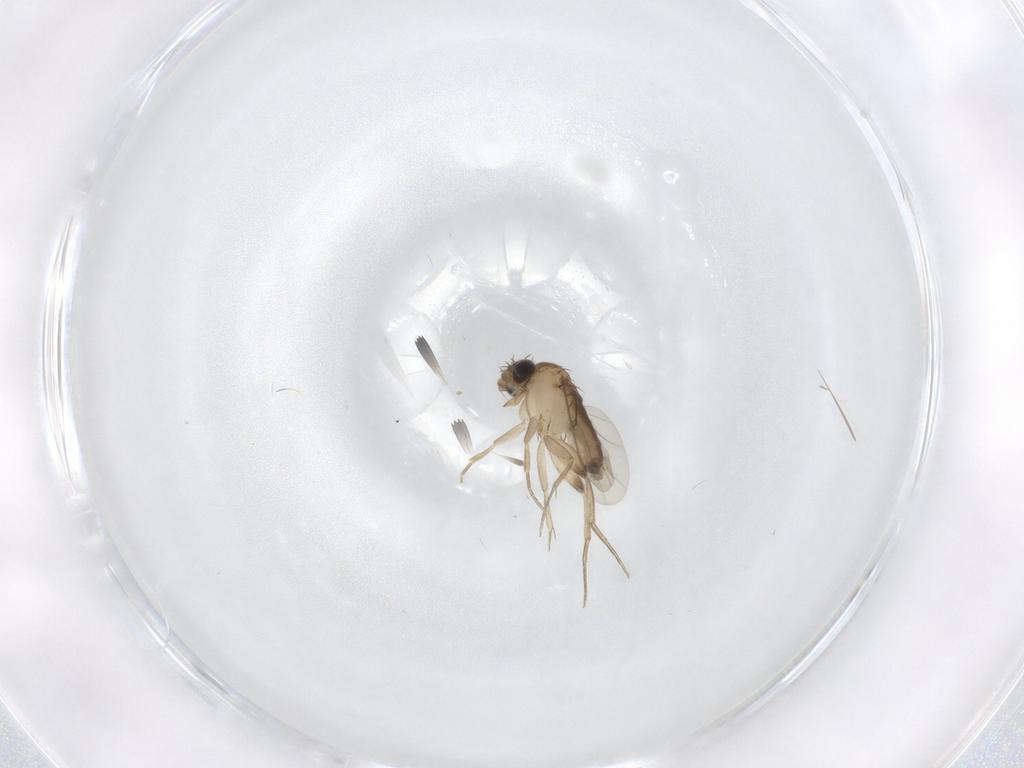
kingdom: Animalia
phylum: Arthropoda
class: Insecta
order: Diptera
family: Phoridae
